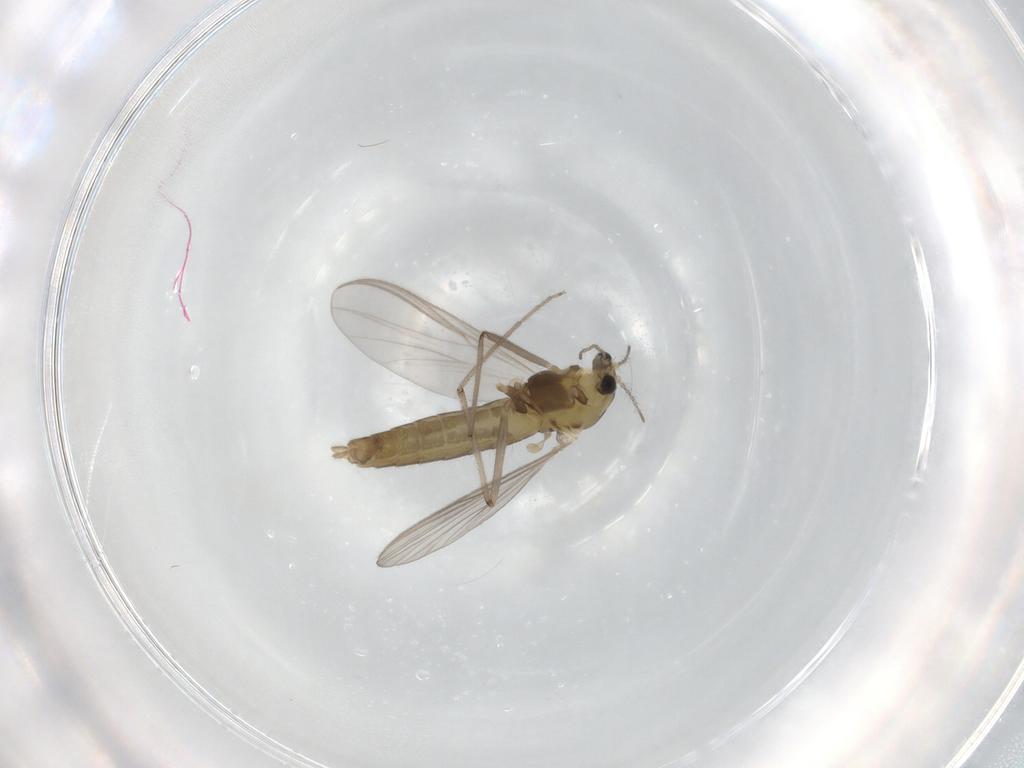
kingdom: Animalia
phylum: Arthropoda
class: Insecta
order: Diptera
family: Chironomidae
